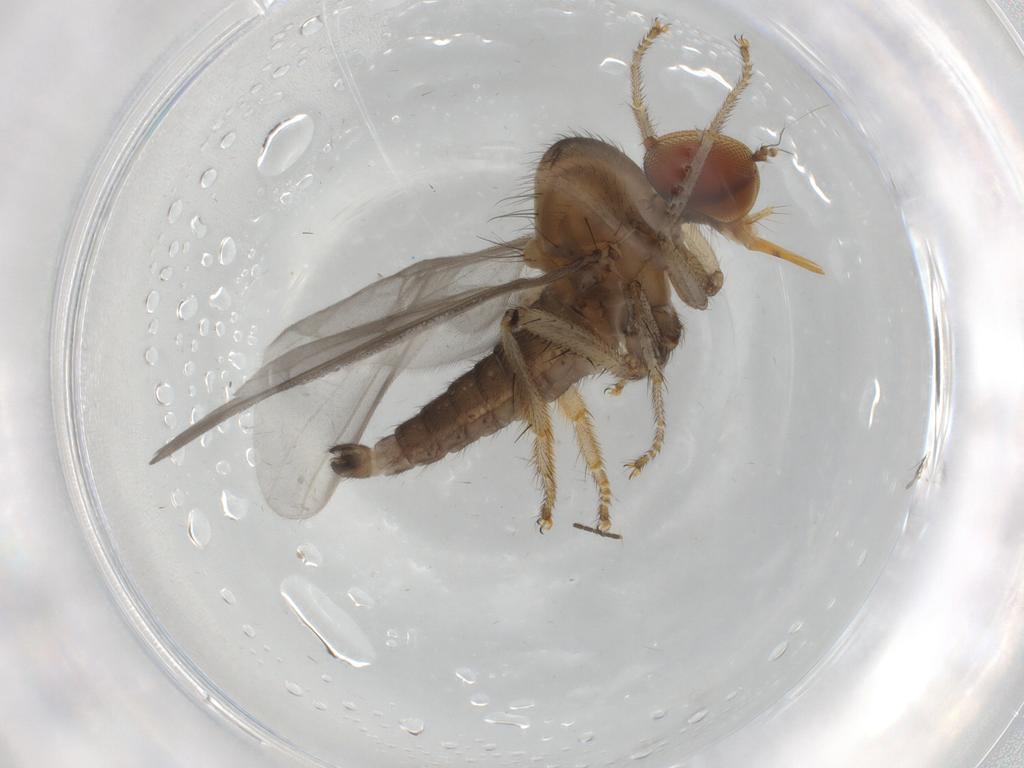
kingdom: Animalia
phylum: Arthropoda
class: Insecta
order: Diptera
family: Hybotidae
